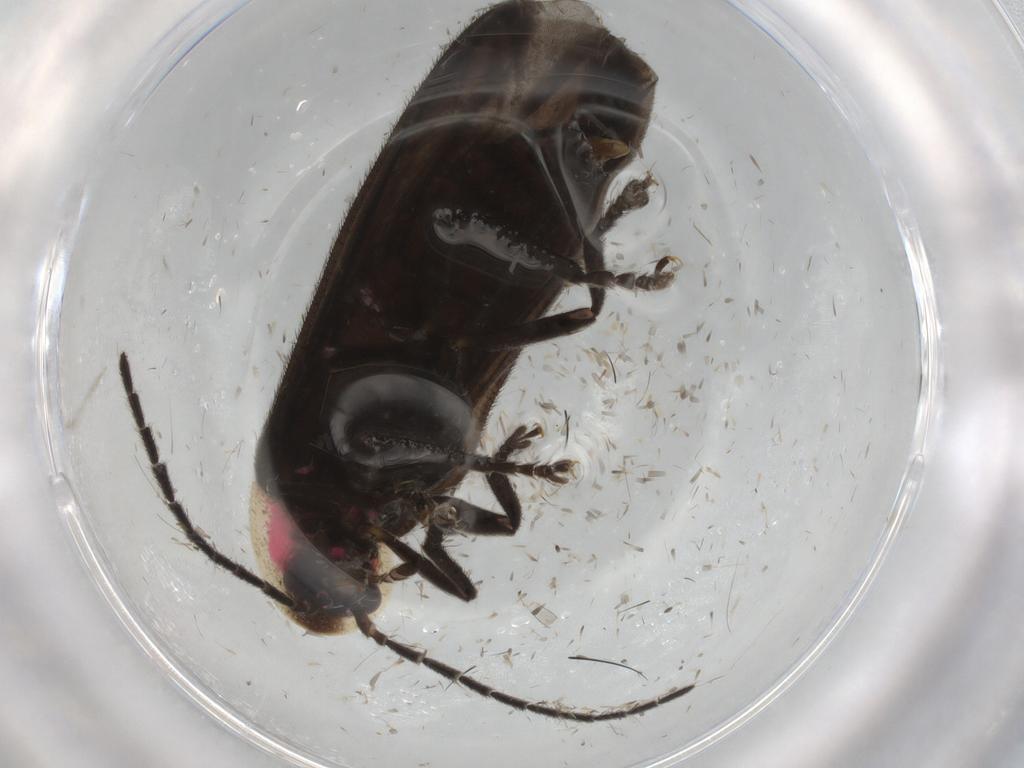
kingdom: Animalia
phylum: Arthropoda
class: Insecta
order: Coleoptera
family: Lampyridae
